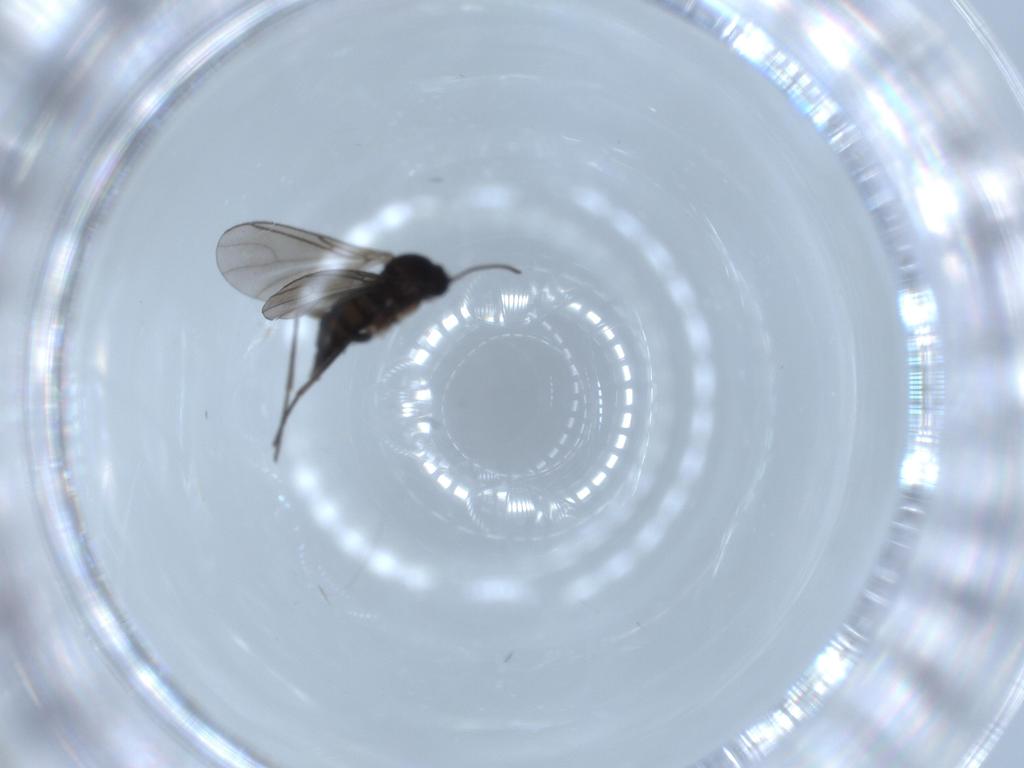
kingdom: Animalia
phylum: Arthropoda
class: Insecta
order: Diptera
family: Sciaridae
